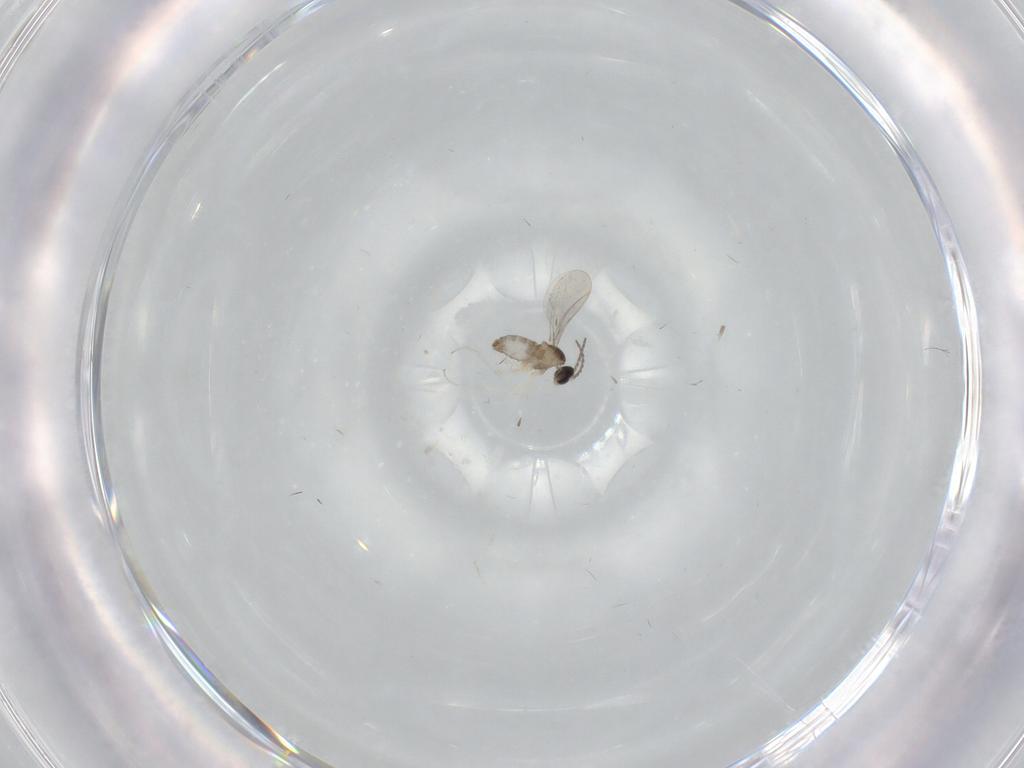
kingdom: Animalia
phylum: Arthropoda
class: Insecta
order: Diptera
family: Cecidomyiidae
